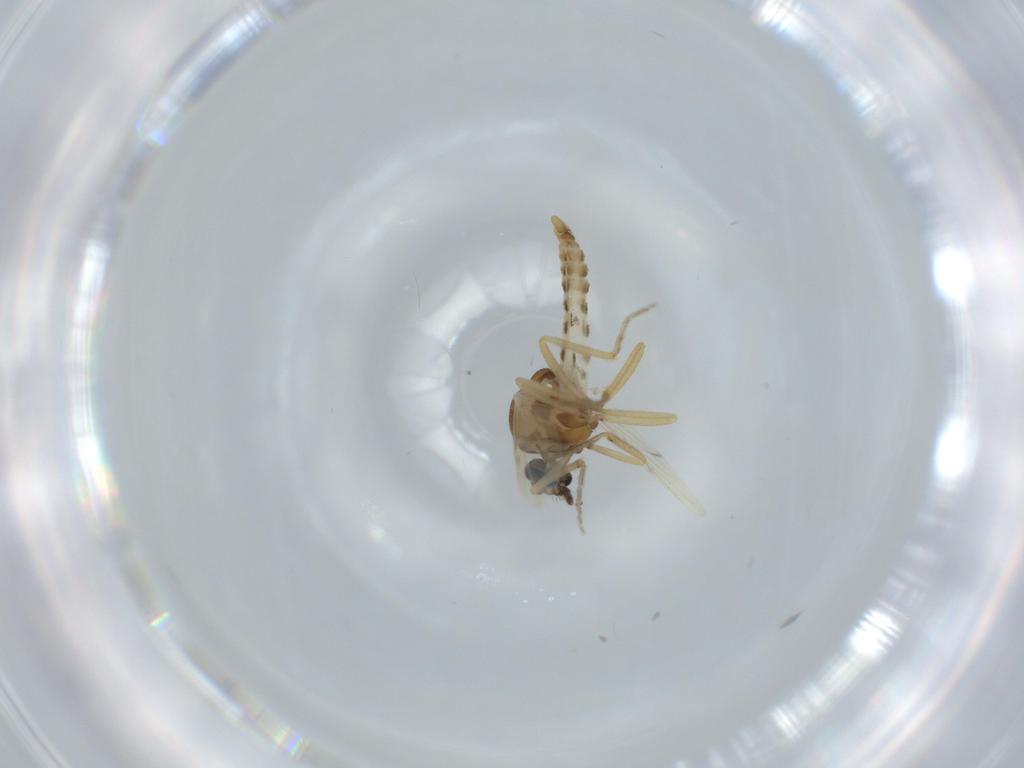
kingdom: Animalia
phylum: Arthropoda
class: Insecta
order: Diptera
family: Ceratopogonidae
